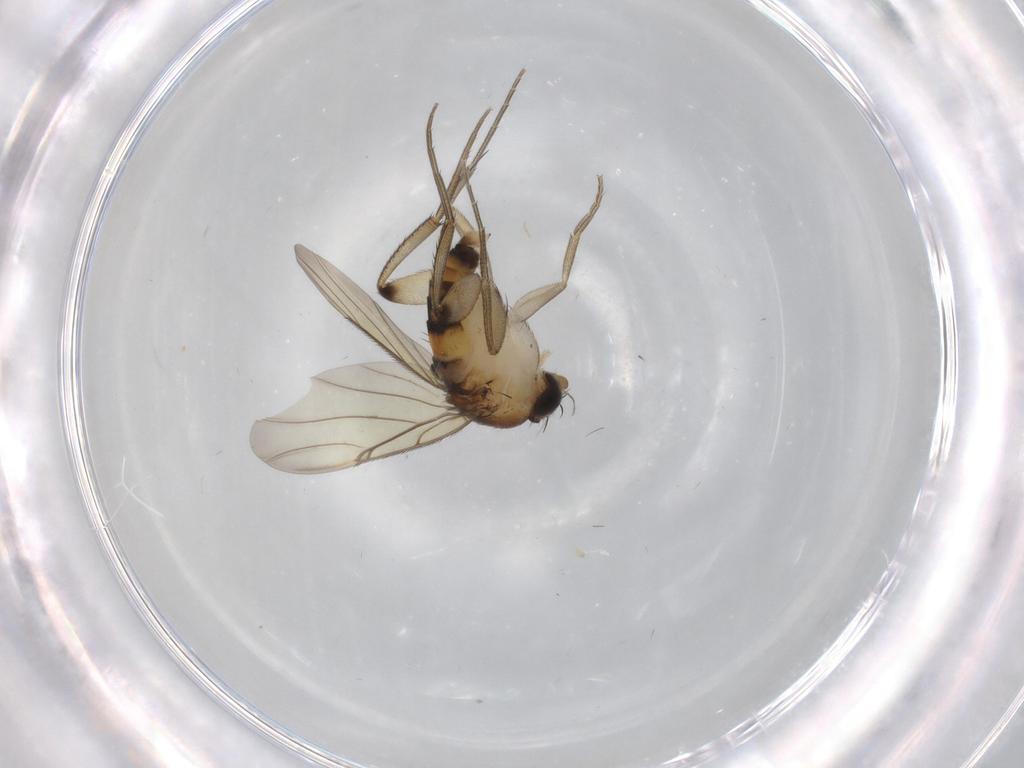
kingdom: Animalia
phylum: Arthropoda
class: Insecta
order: Diptera
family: Phoridae
